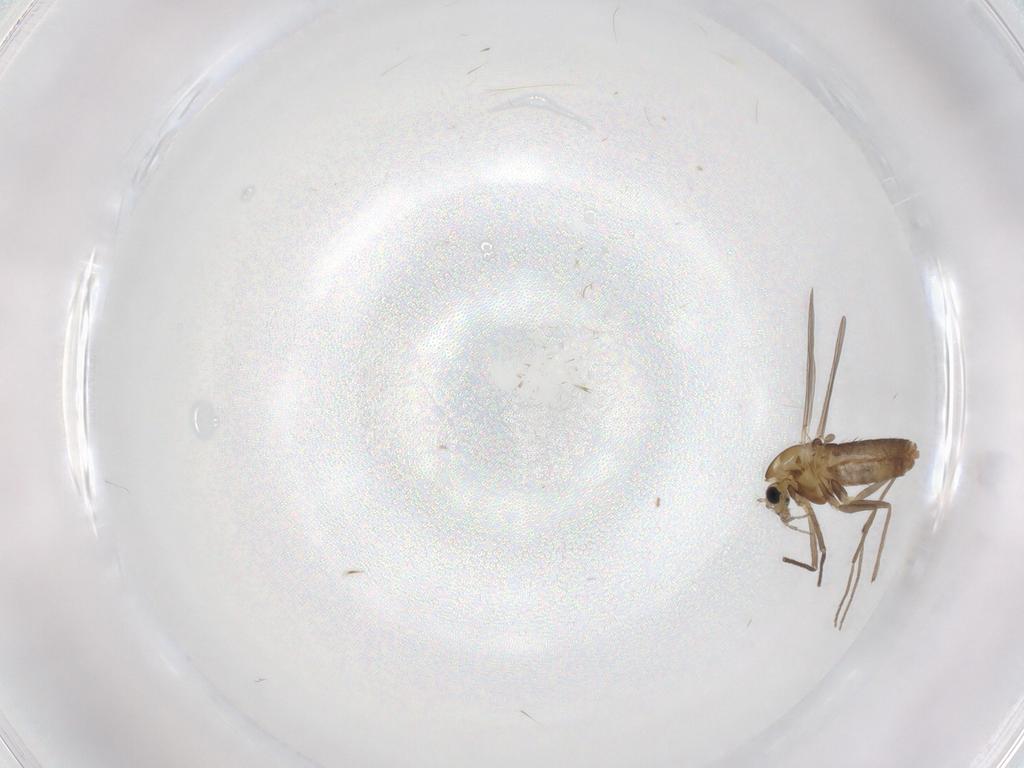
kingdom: Animalia
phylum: Arthropoda
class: Insecta
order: Diptera
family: Chironomidae
